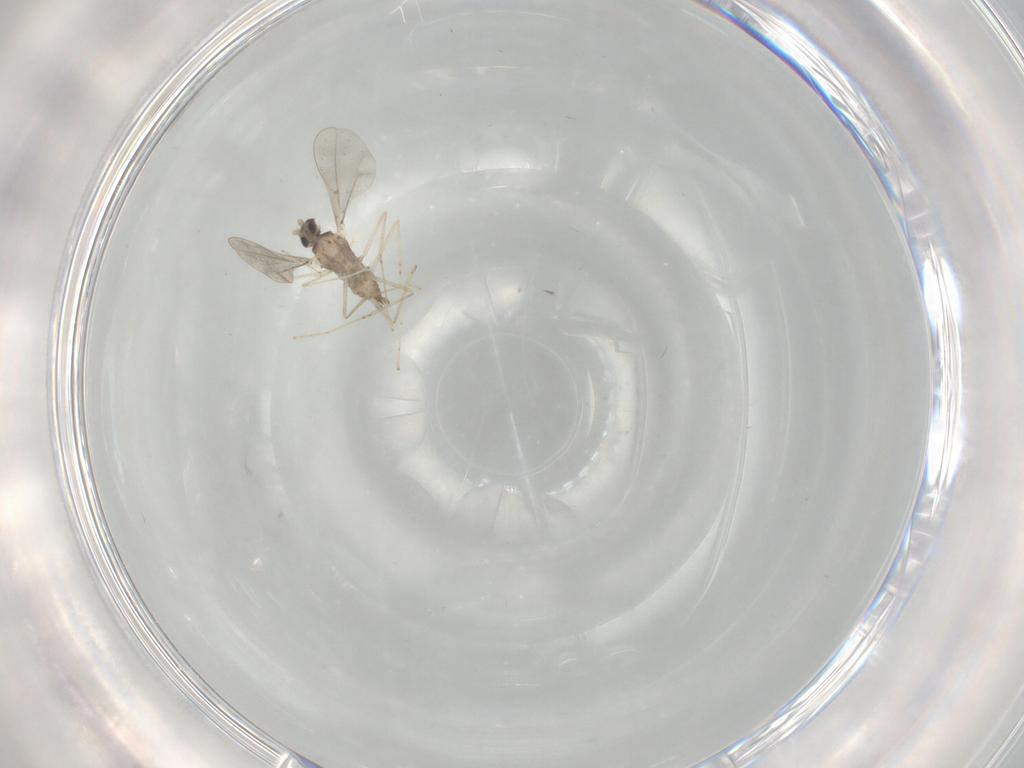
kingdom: Animalia
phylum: Arthropoda
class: Insecta
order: Diptera
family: Cecidomyiidae
